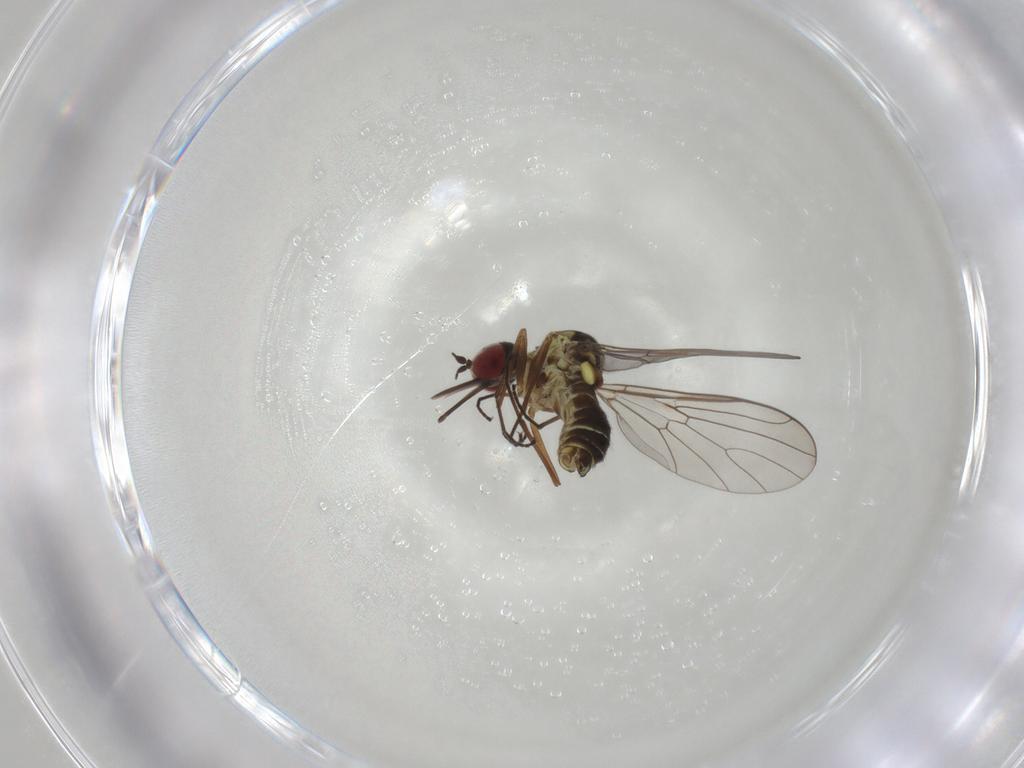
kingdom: Animalia
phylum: Arthropoda
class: Insecta
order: Diptera
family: Bombyliidae
